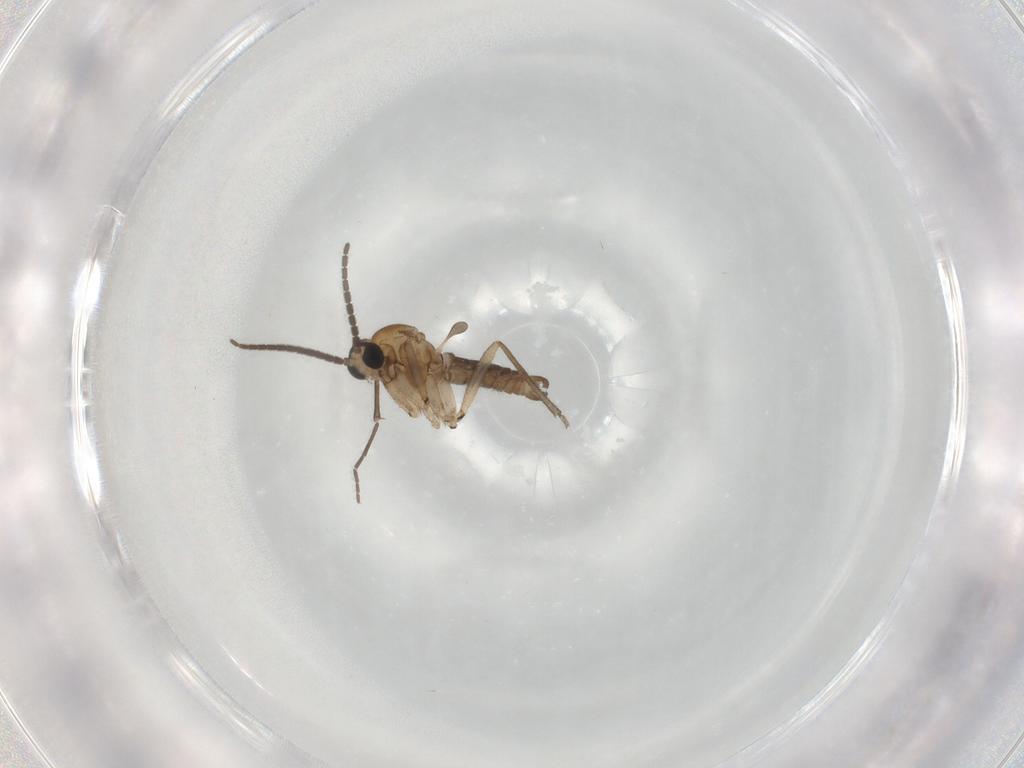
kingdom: Animalia
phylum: Arthropoda
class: Insecta
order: Diptera
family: Sciaridae
